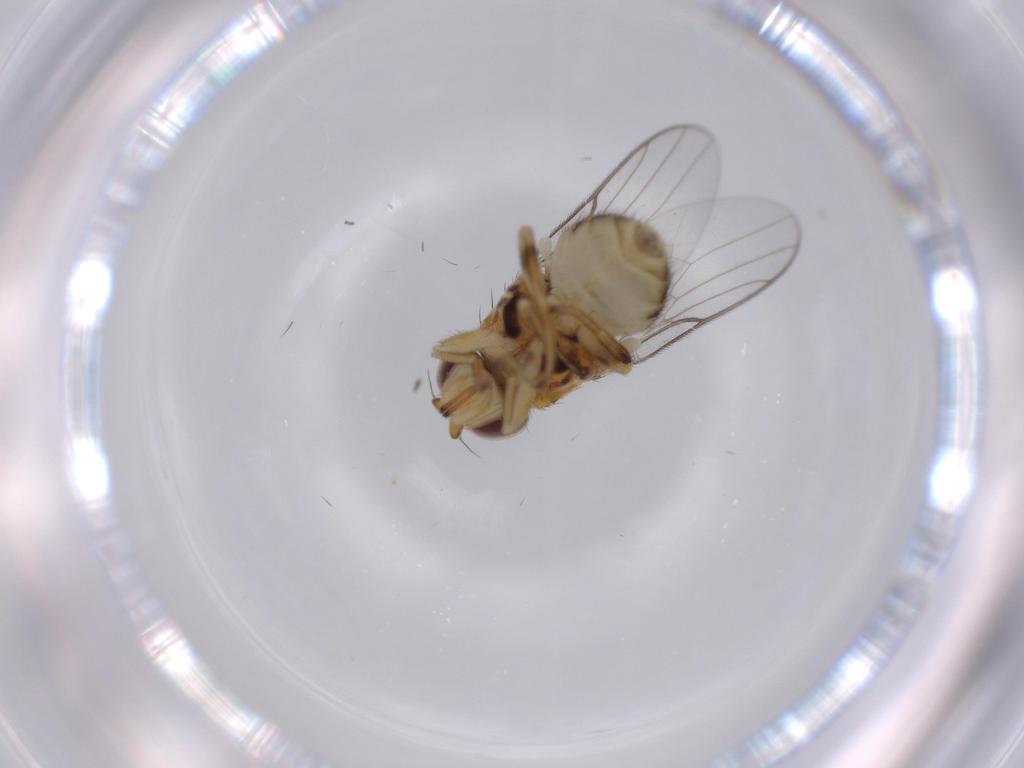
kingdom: Animalia
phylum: Arthropoda
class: Insecta
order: Diptera
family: Chloropidae
